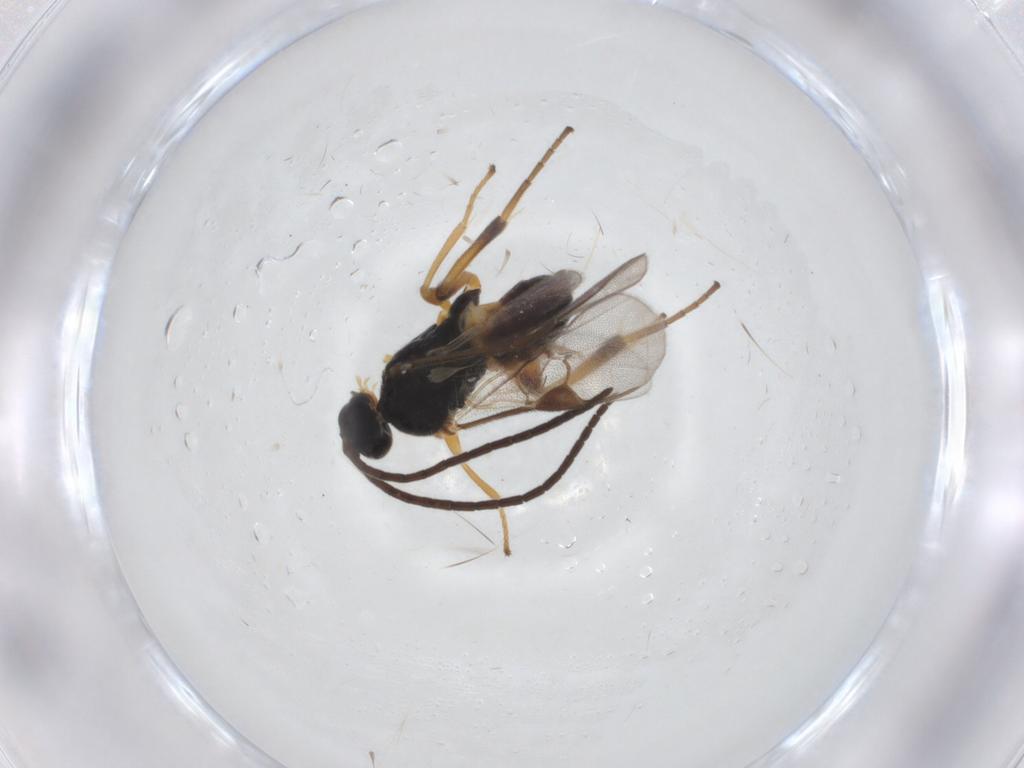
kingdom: Animalia
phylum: Arthropoda
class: Insecta
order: Hymenoptera
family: Braconidae
